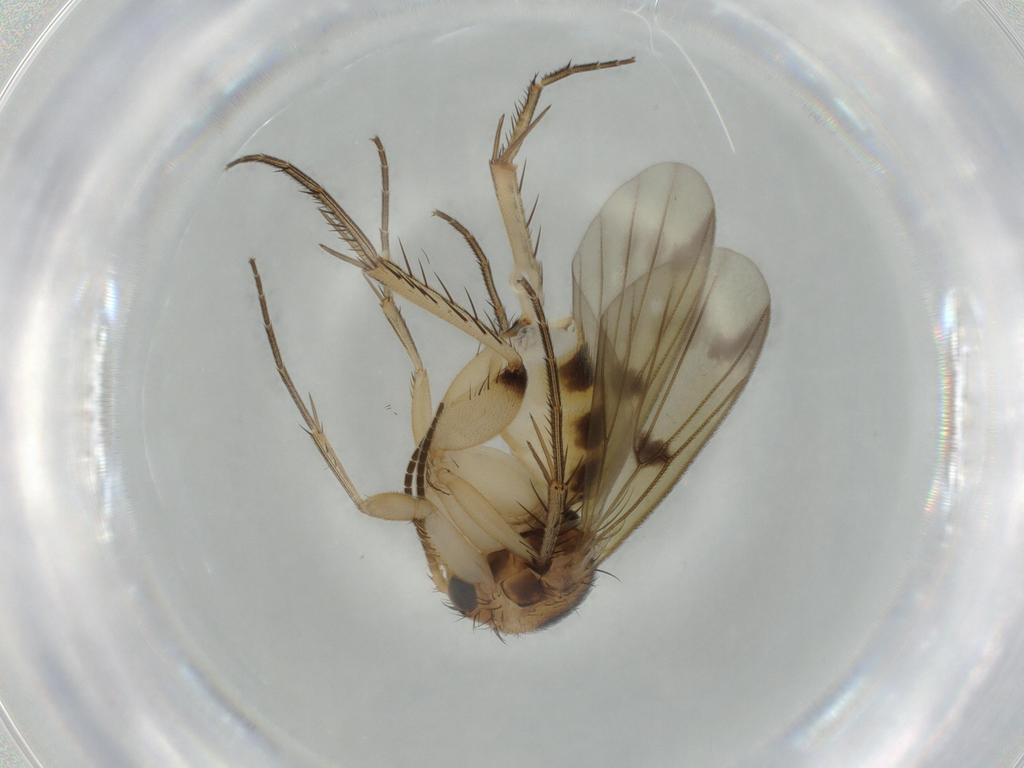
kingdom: Animalia
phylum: Arthropoda
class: Insecta
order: Diptera
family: Phoridae
